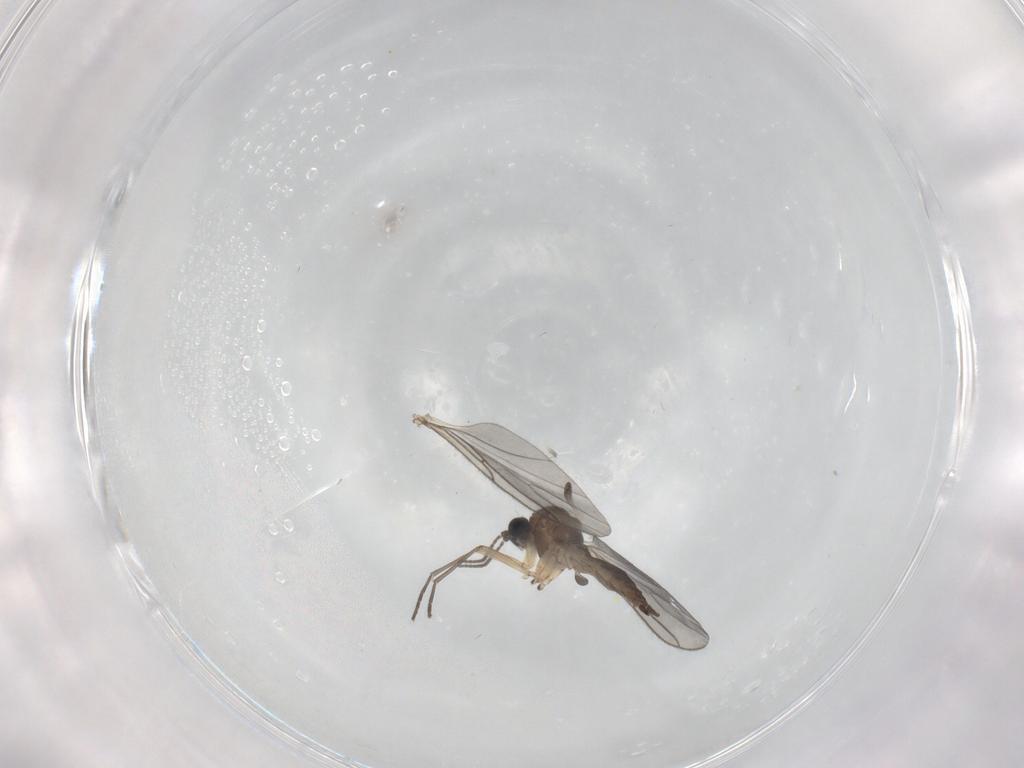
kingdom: Animalia
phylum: Arthropoda
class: Insecta
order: Diptera
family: Sciaridae
